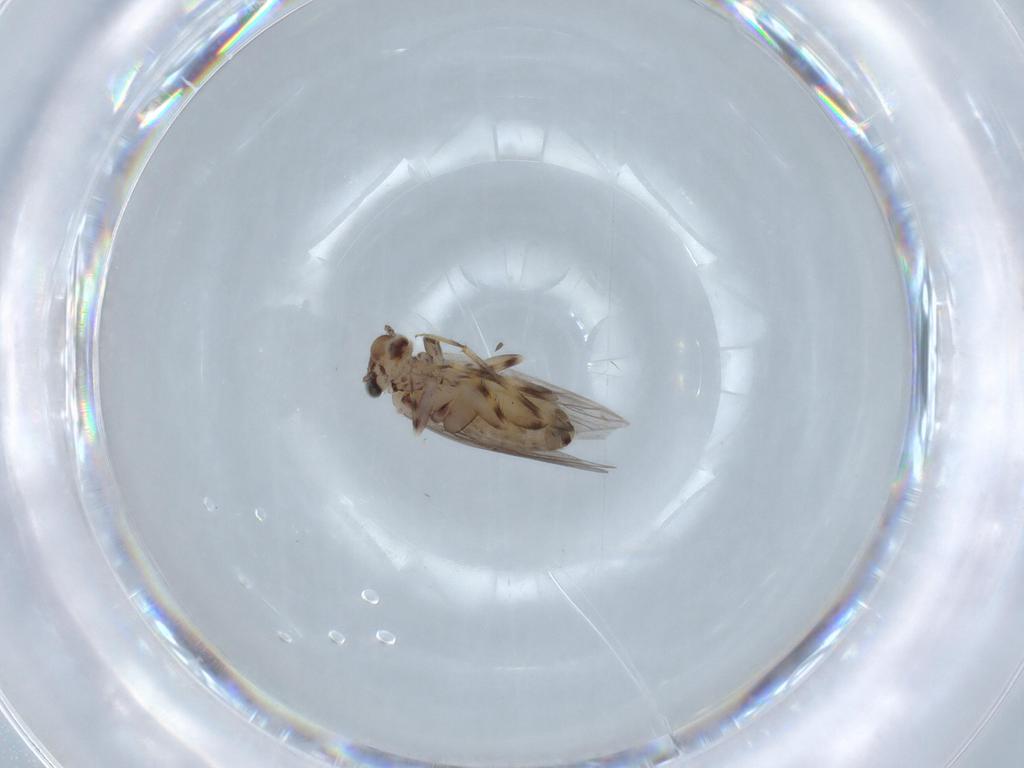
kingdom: Animalia
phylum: Arthropoda
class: Insecta
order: Psocodea
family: Lepidopsocidae
